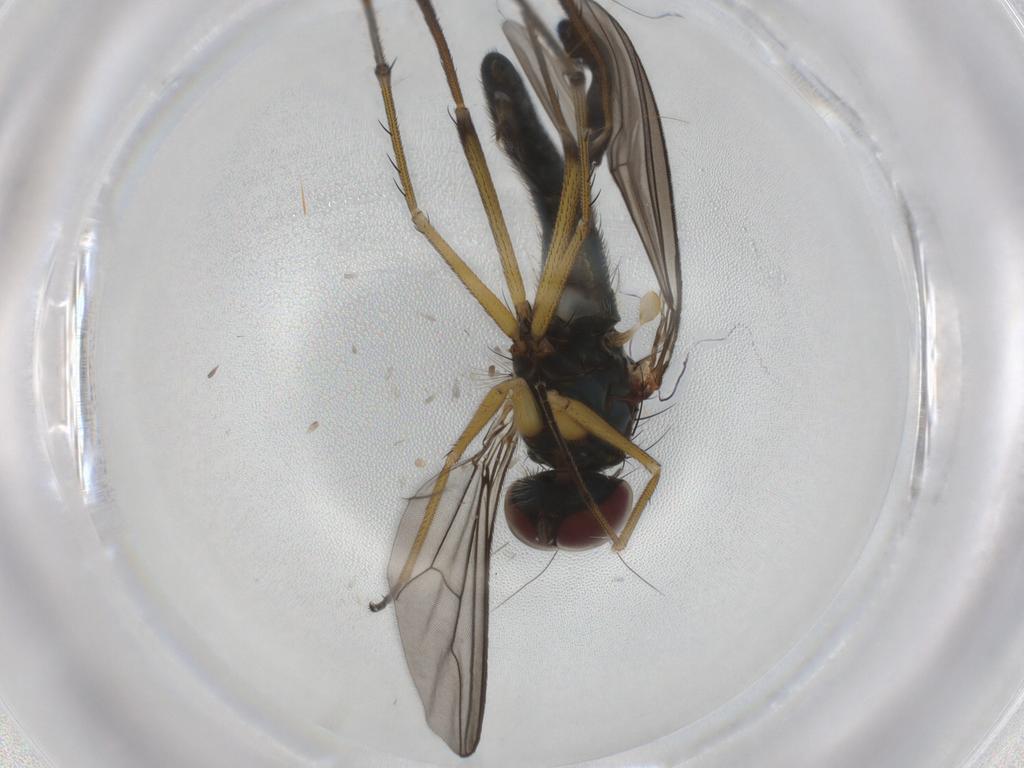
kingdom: Animalia
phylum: Arthropoda
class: Insecta
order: Diptera
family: Dolichopodidae
